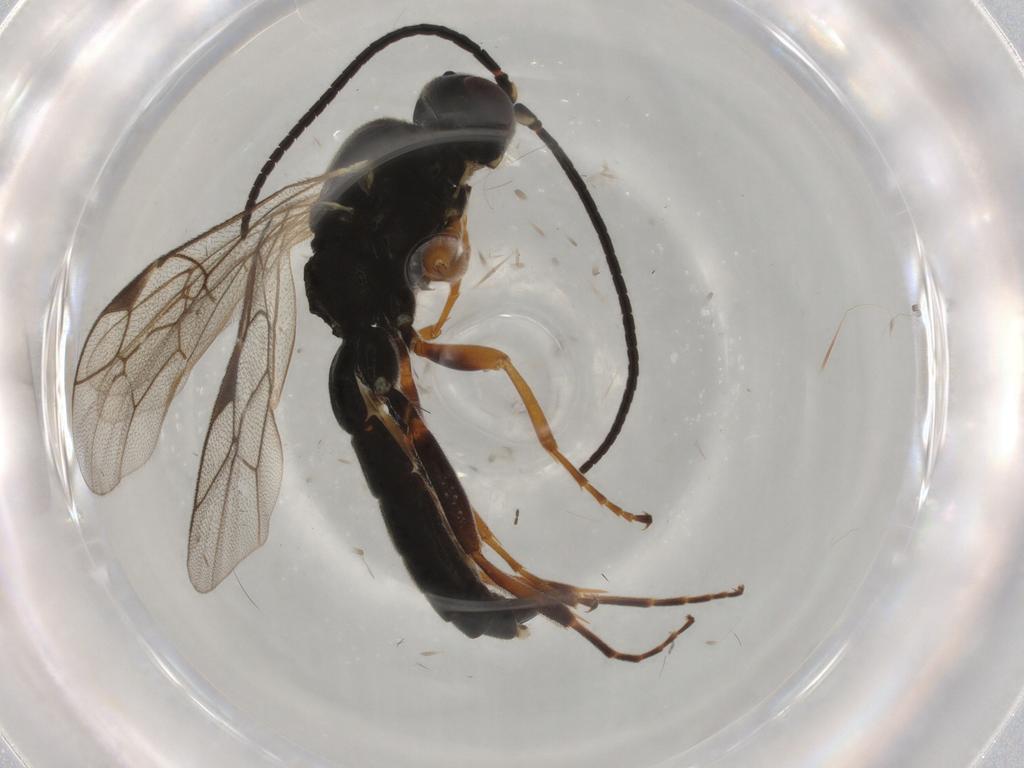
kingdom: Animalia
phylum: Arthropoda
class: Insecta
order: Hymenoptera
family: Ichneumonidae
